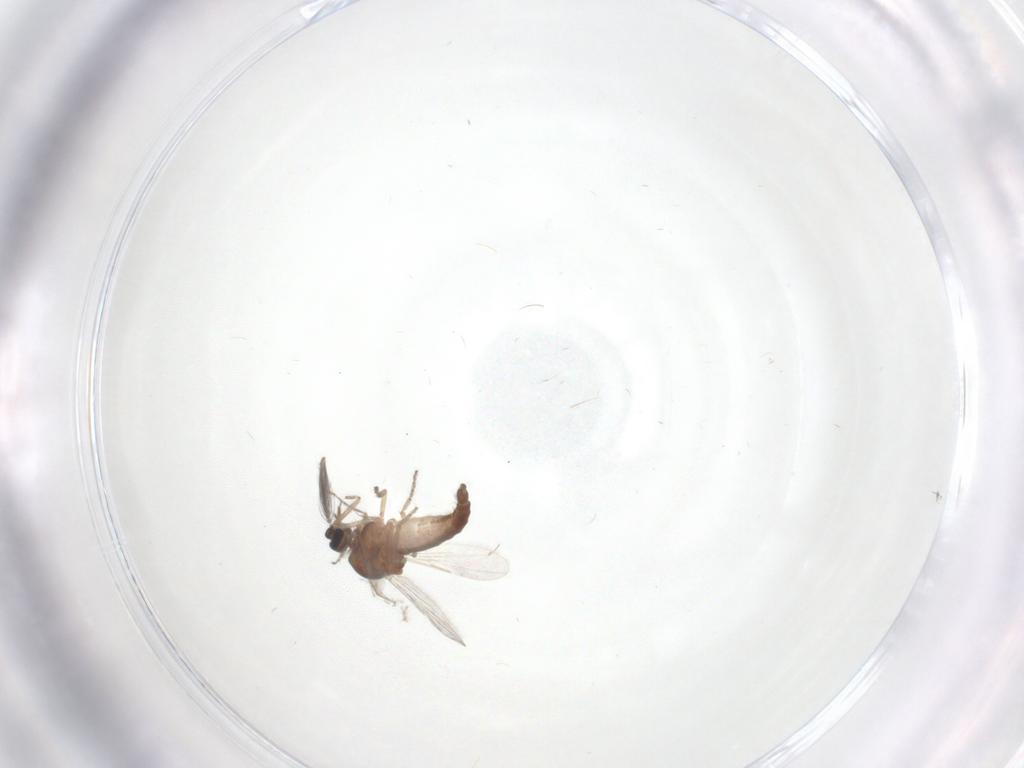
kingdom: Animalia
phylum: Arthropoda
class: Insecta
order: Diptera
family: Ceratopogonidae
